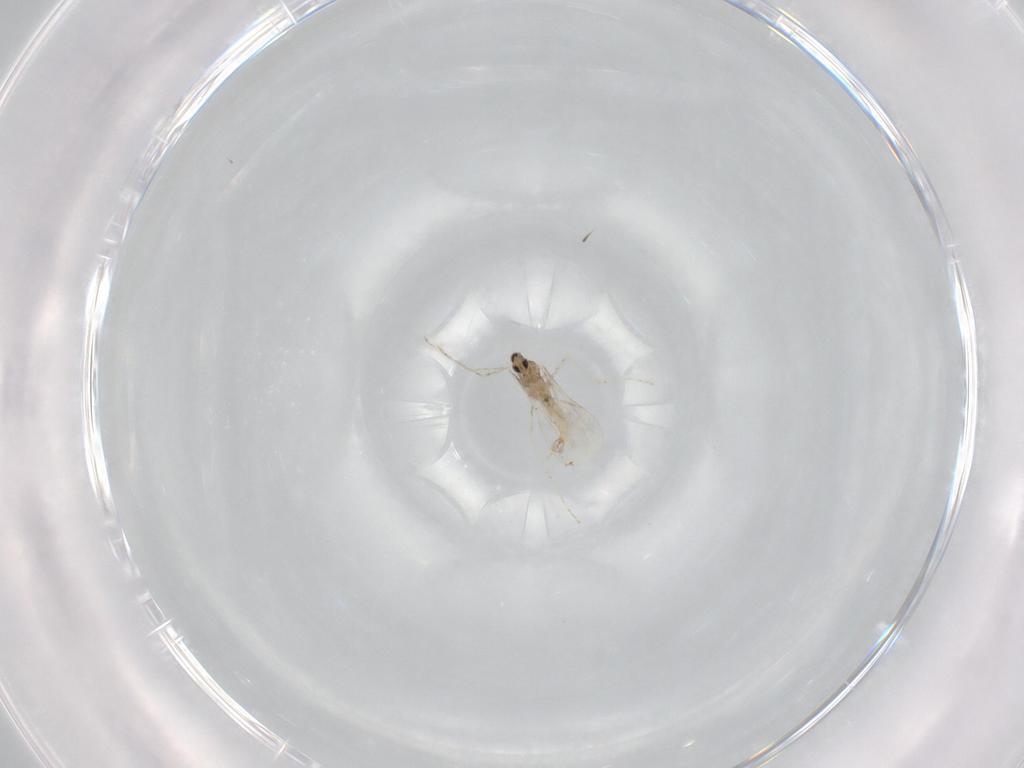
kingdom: Animalia
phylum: Arthropoda
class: Insecta
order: Diptera
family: Cecidomyiidae
